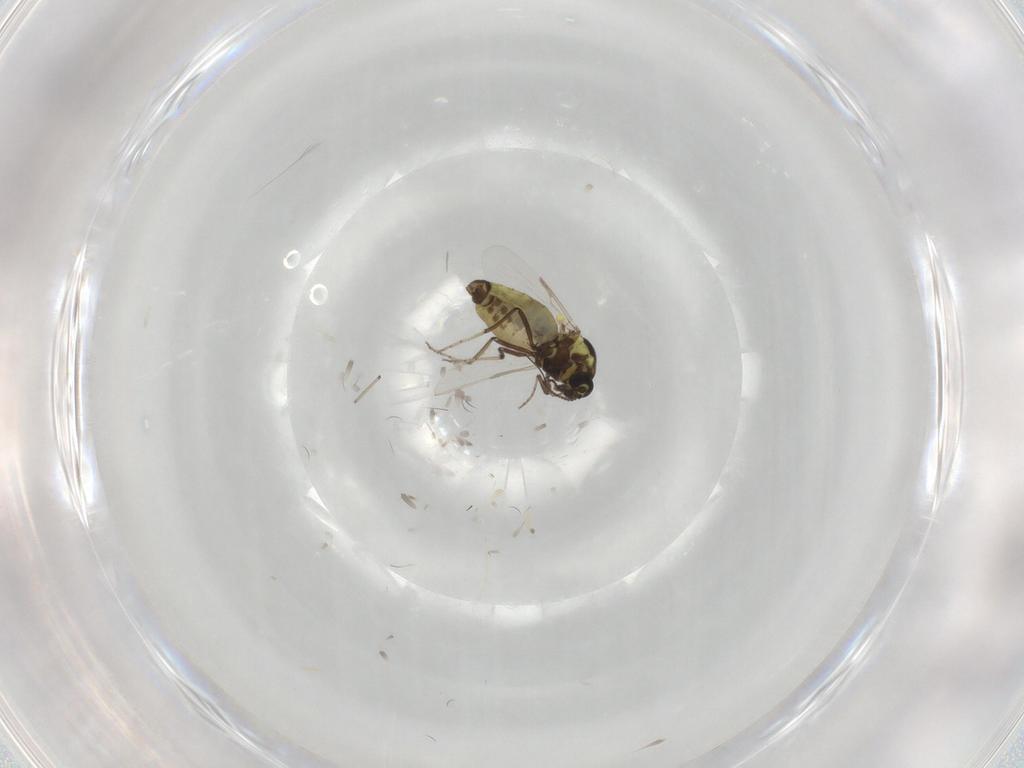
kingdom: Animalia
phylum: Arthropoda
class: Insecta
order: Diptera
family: Ceratopogonidae
